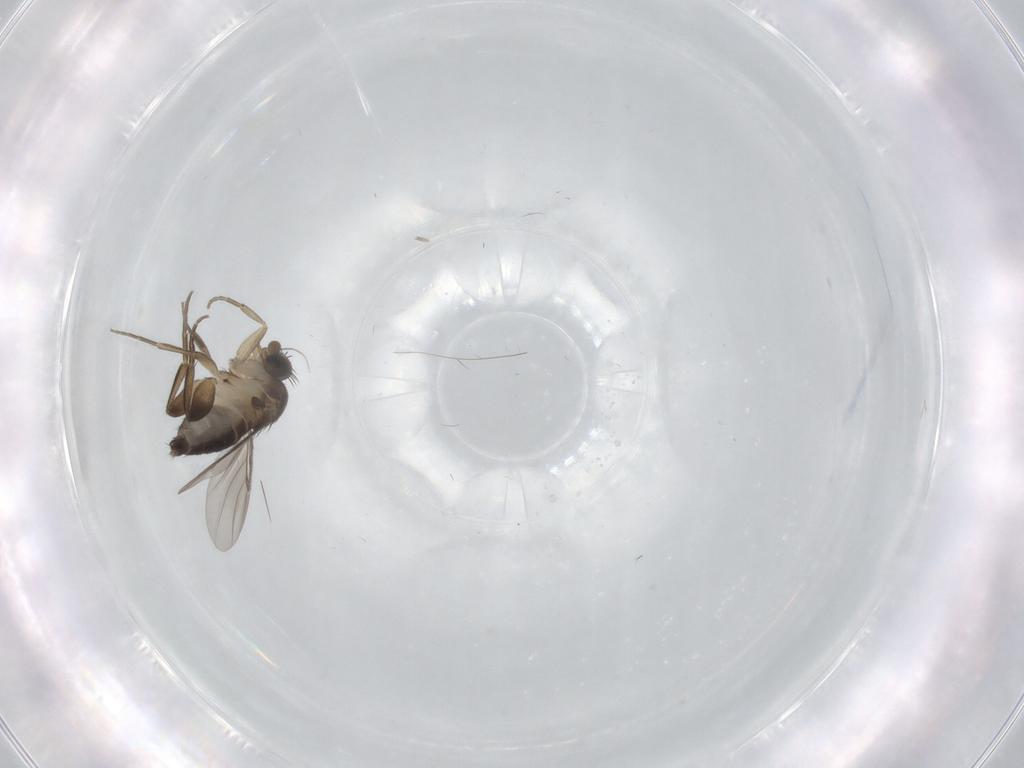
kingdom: Animalia
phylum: Arthropoda
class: Insecta
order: Diptera
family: Phoridae
